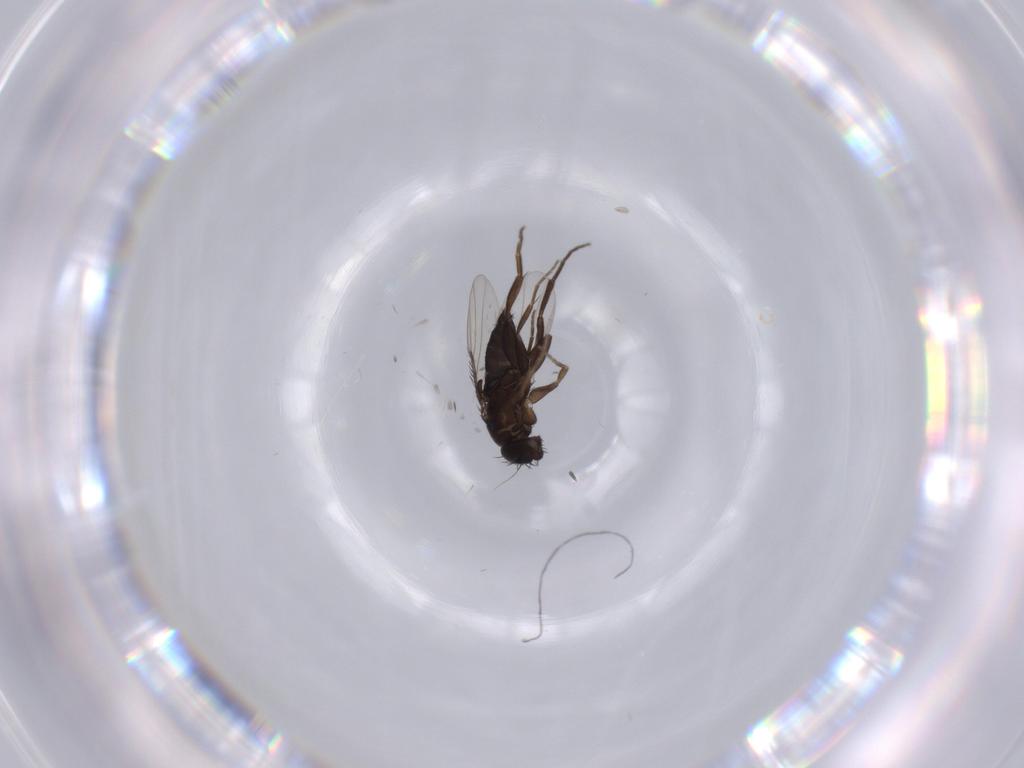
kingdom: Animalia
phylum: Arthropoda
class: Insecta
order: Diptera
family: Phoridae
